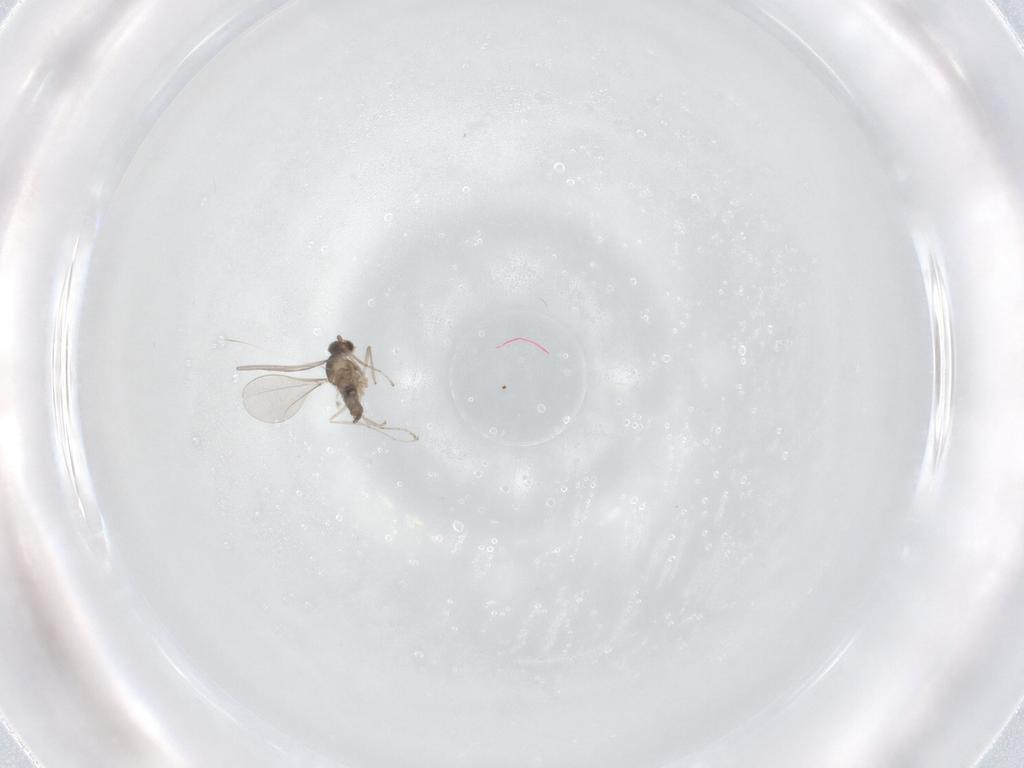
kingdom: Animalia
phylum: Arthropoda
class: Insecta
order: Diptera
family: Cecidomyiidae
